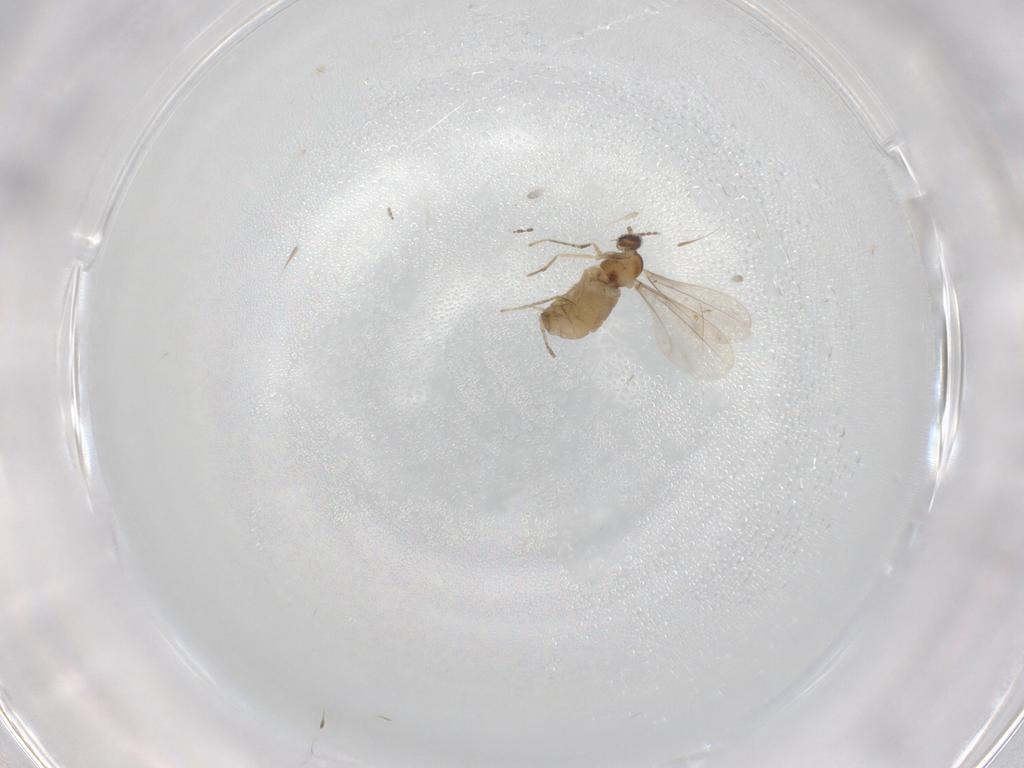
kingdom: Animalia
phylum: Arthropoda
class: Insecta
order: Diptera
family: Cecidomyiidae
